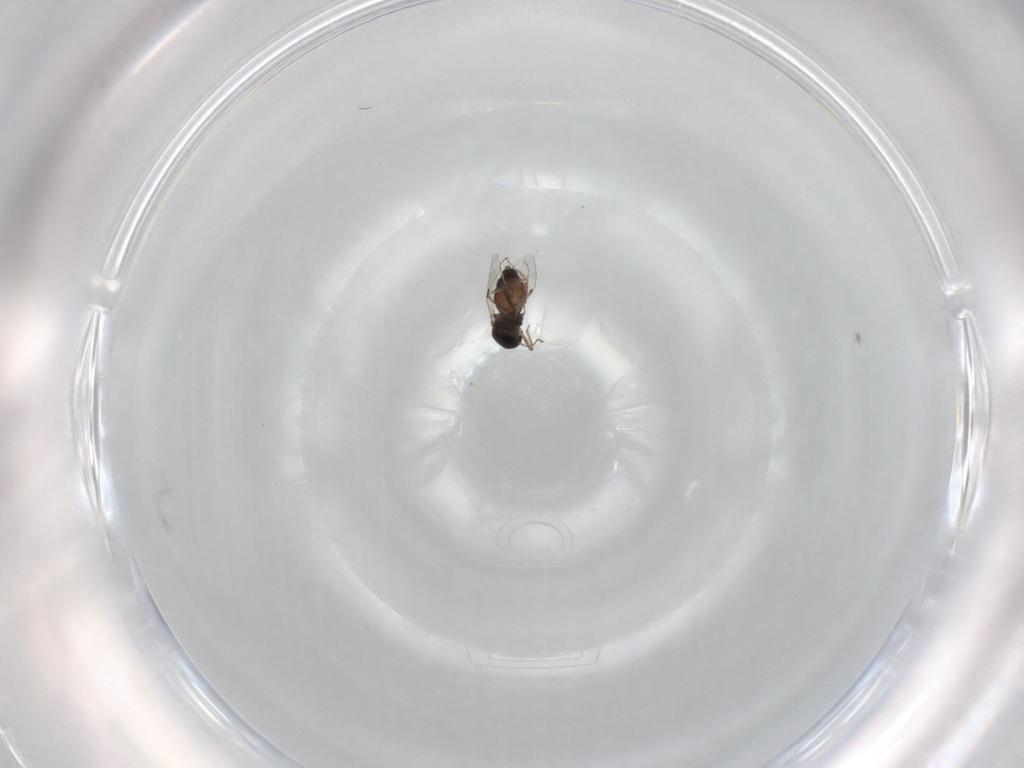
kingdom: Animalia
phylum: Arthropoda
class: Insecta
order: Diptera
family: Ceratopogonidae
